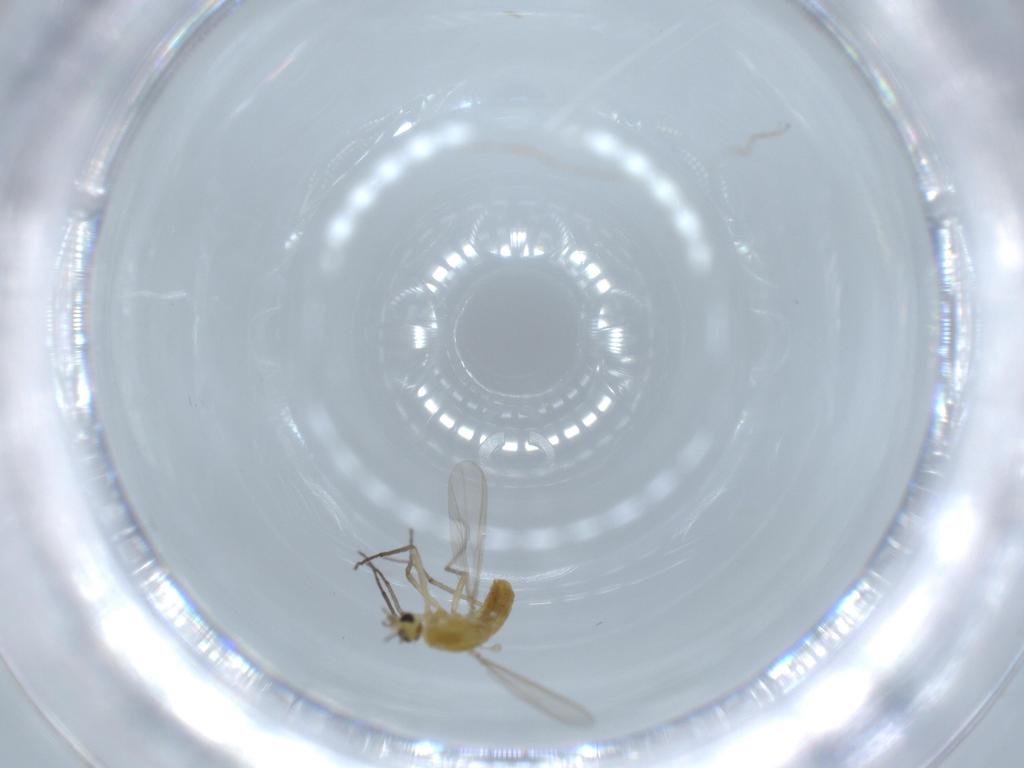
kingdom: Animalia
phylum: Arthropoda
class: Insecta
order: Diptera
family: Chironomidae
